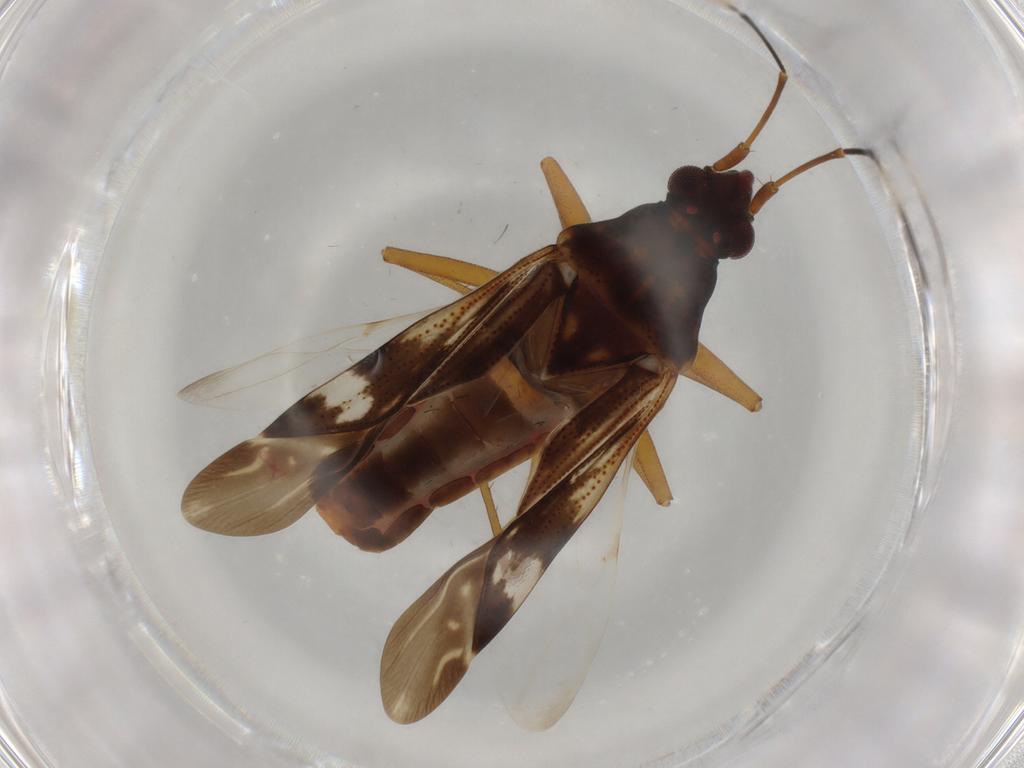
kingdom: Animalia
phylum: Arthropoda
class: Insecta
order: Hemiptera
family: Rhyparochromidae
